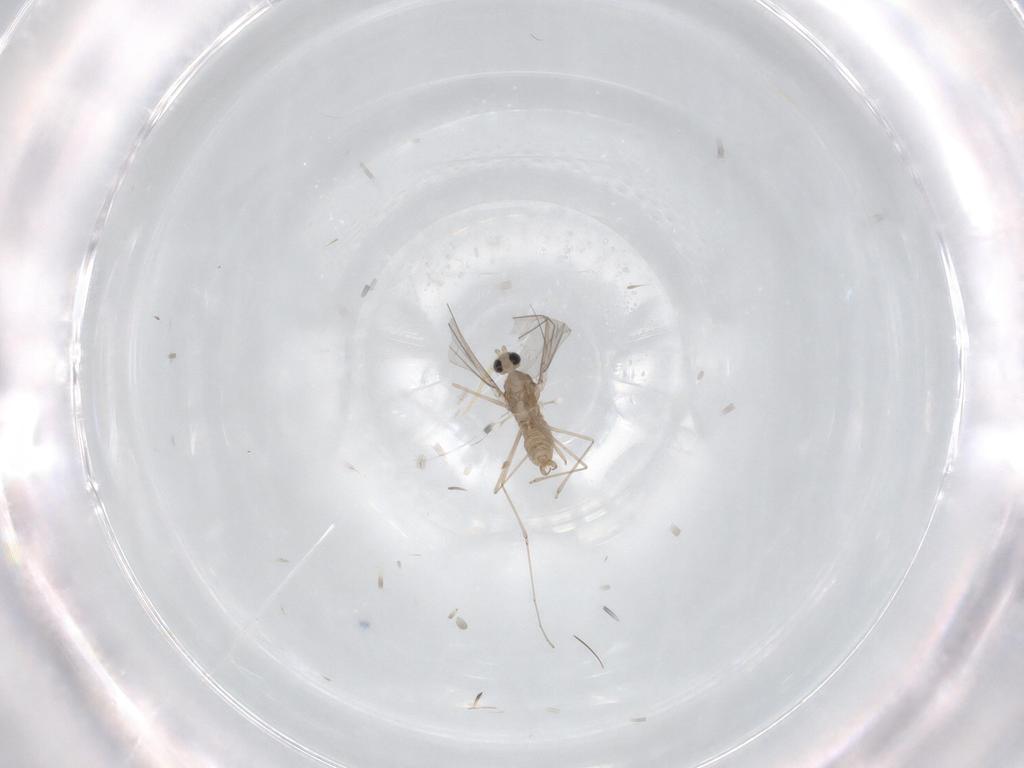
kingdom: Animalia
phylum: Arthropoda
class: Insecta
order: Diptera
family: Cecidomyiidae
